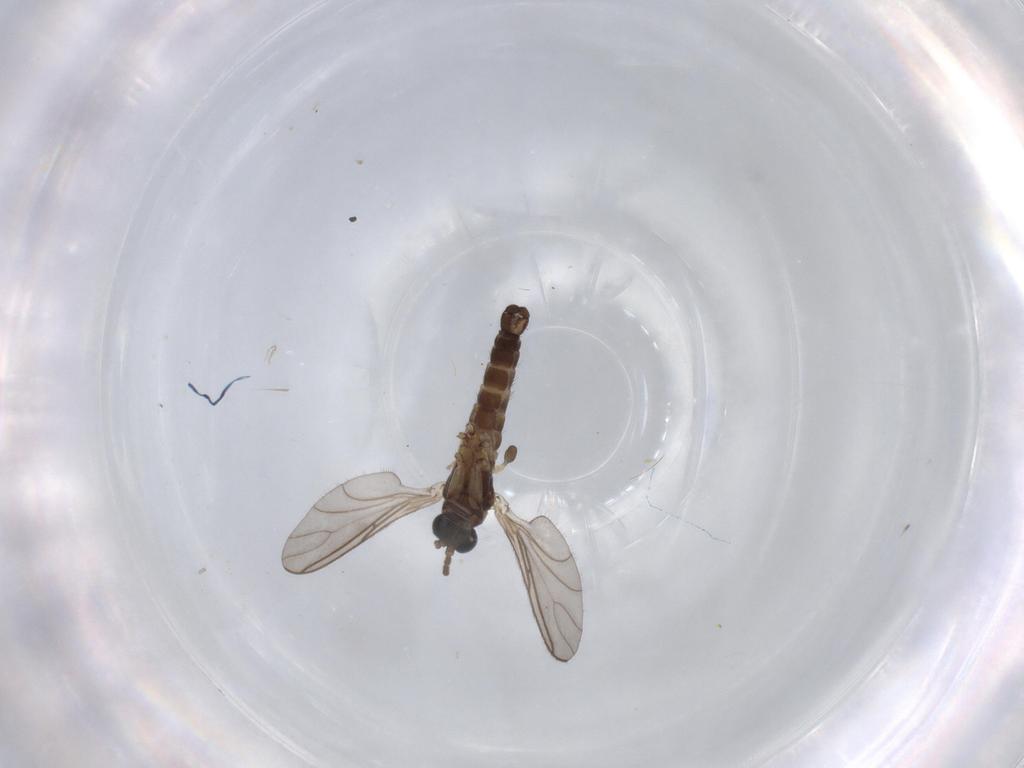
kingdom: Animalia
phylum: Arthropoda
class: Insecta
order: Diptera
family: Sciaridae
